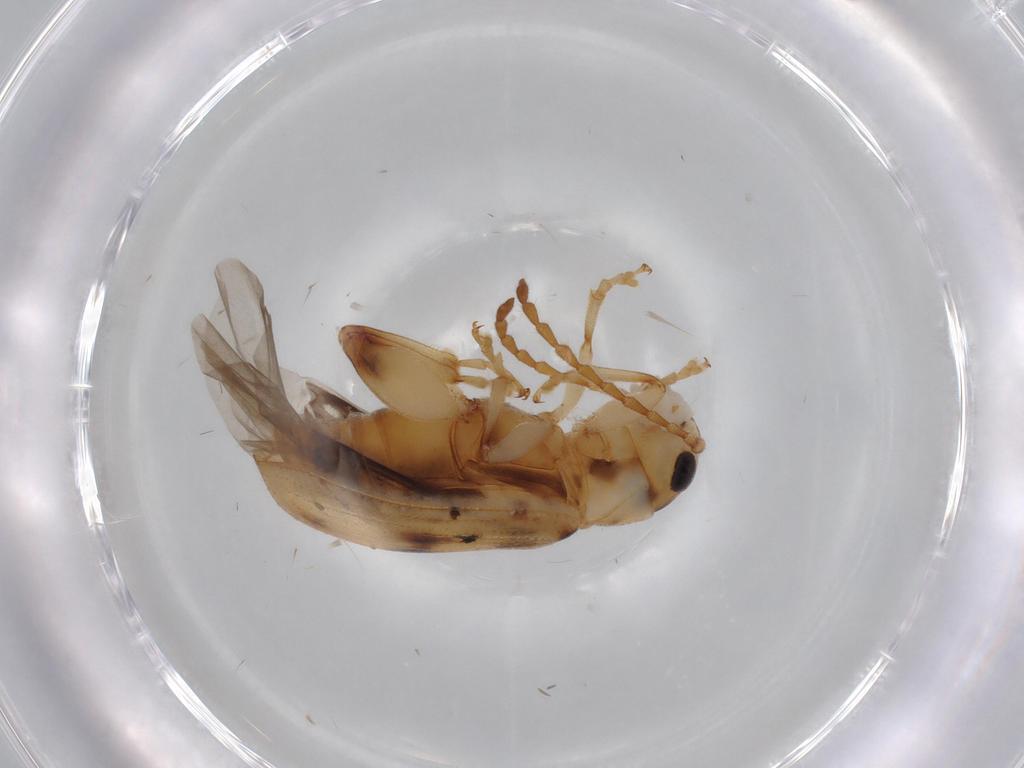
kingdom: Animalia
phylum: Arthropoda
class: Insecta
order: Coleoptera
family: Chrysomelidae
